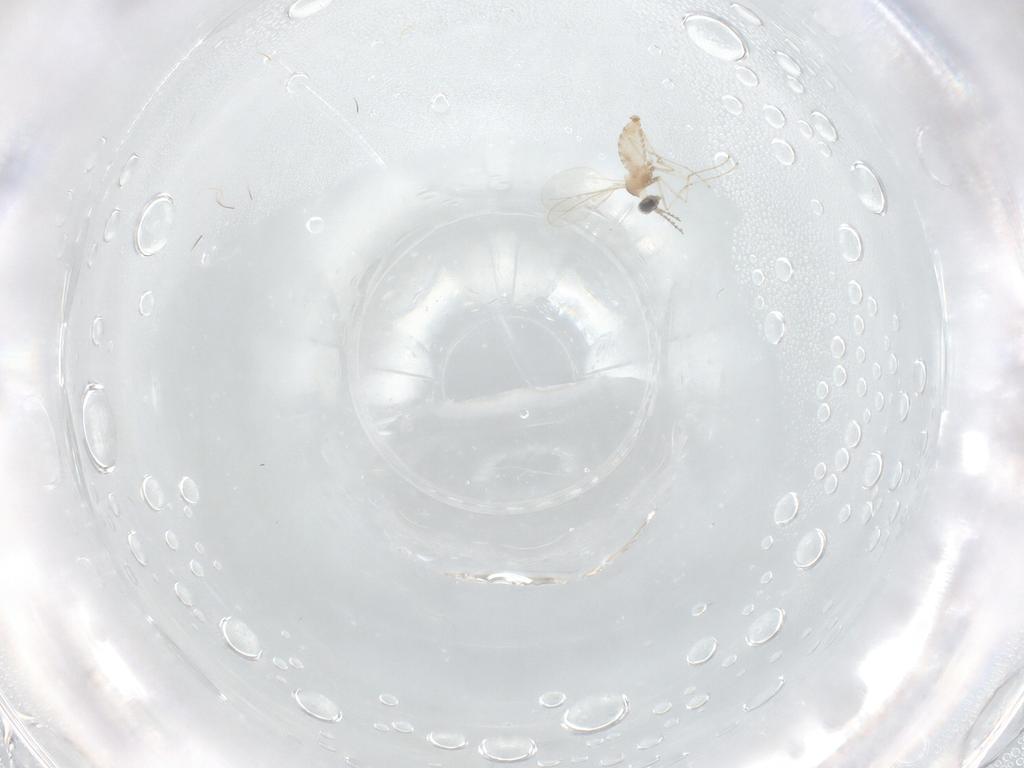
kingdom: Animalia
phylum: Arthropoda
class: Insecta
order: Diptera
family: Cecidomyiidae
